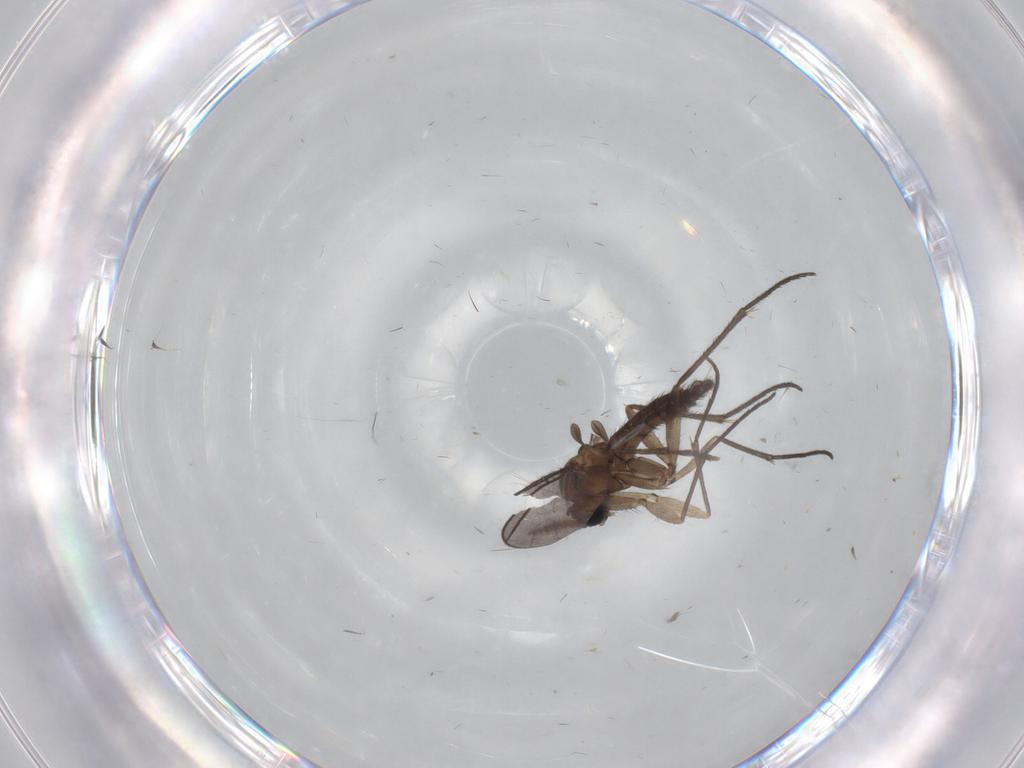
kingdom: Animalia
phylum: Arthropoda
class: Insecta
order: Diptera
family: Sciaridae
